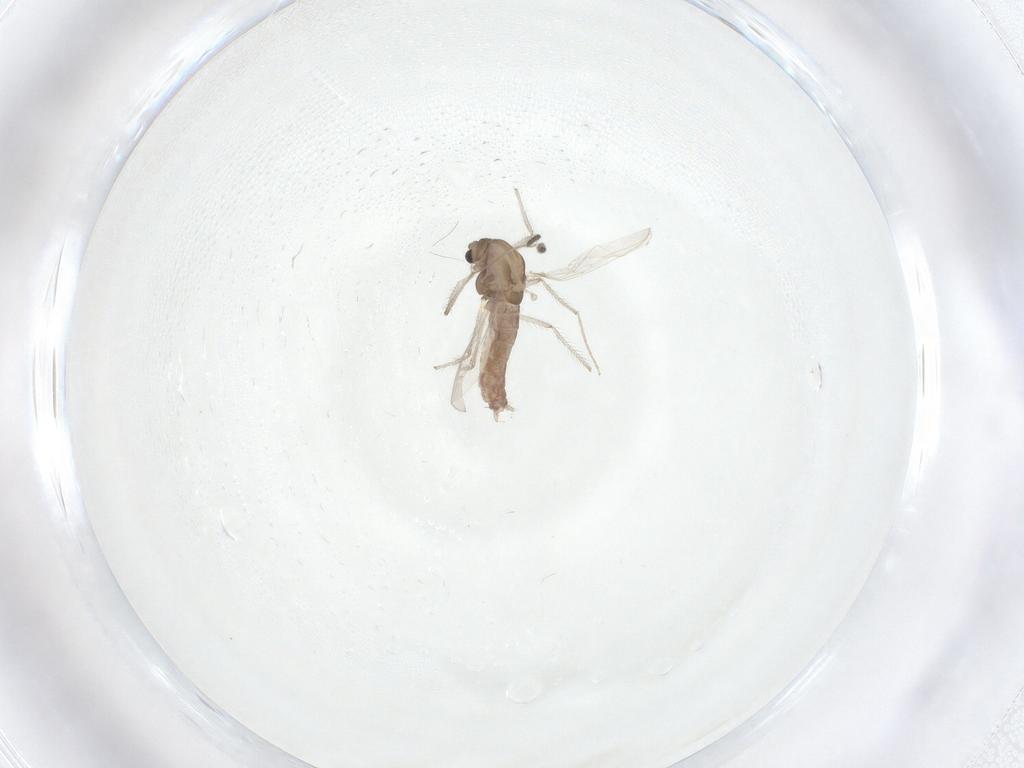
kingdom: Animalia
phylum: Arthropoda
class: Insecta
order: Diptera
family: Chironomidae
